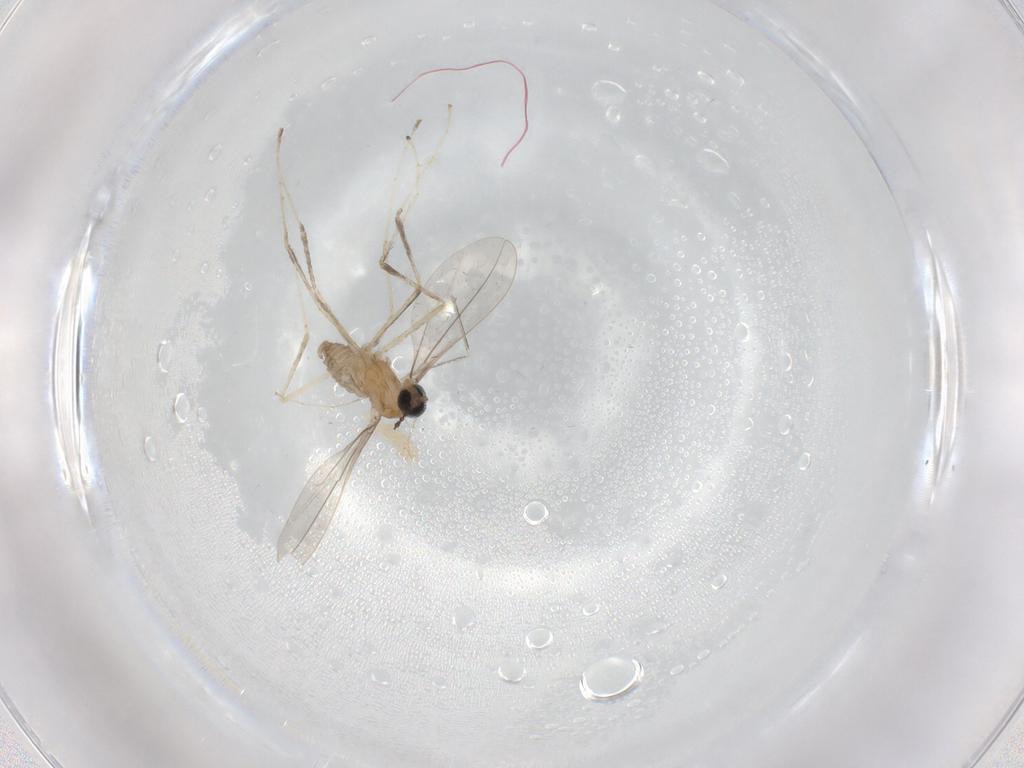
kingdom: Animalia
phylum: Arthropoda
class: Insecta
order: Diptera
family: Cecidomyiidae
